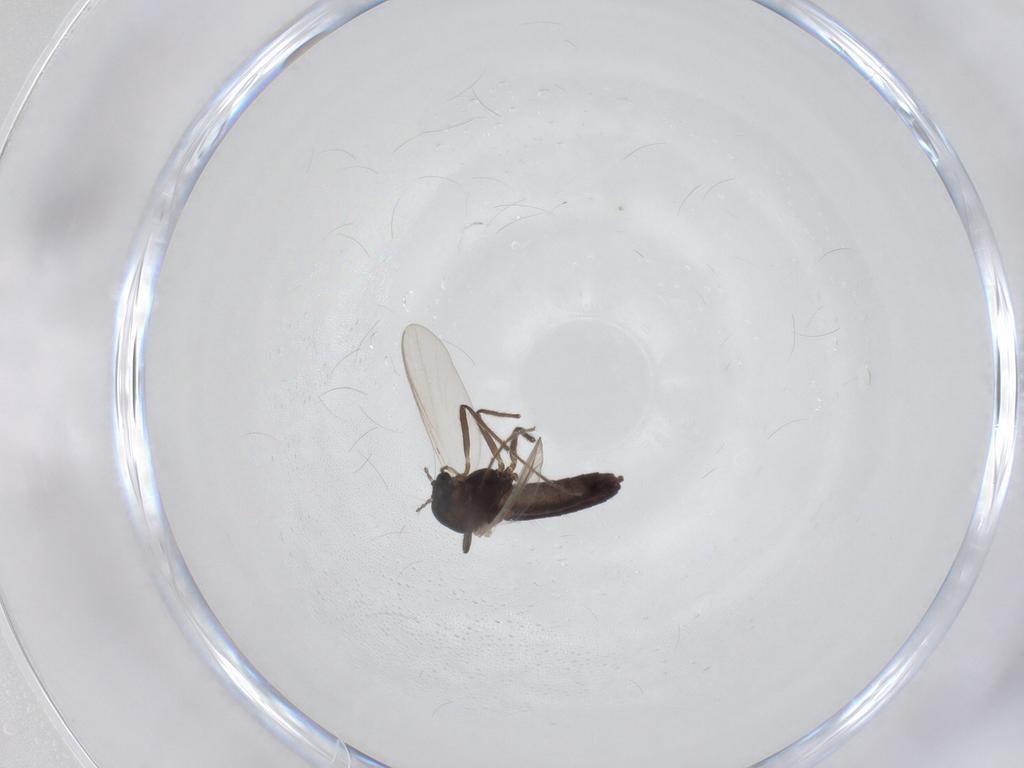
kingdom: Animalia
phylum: Arthropoda
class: Insecta
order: Diptera
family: Chironomidae
